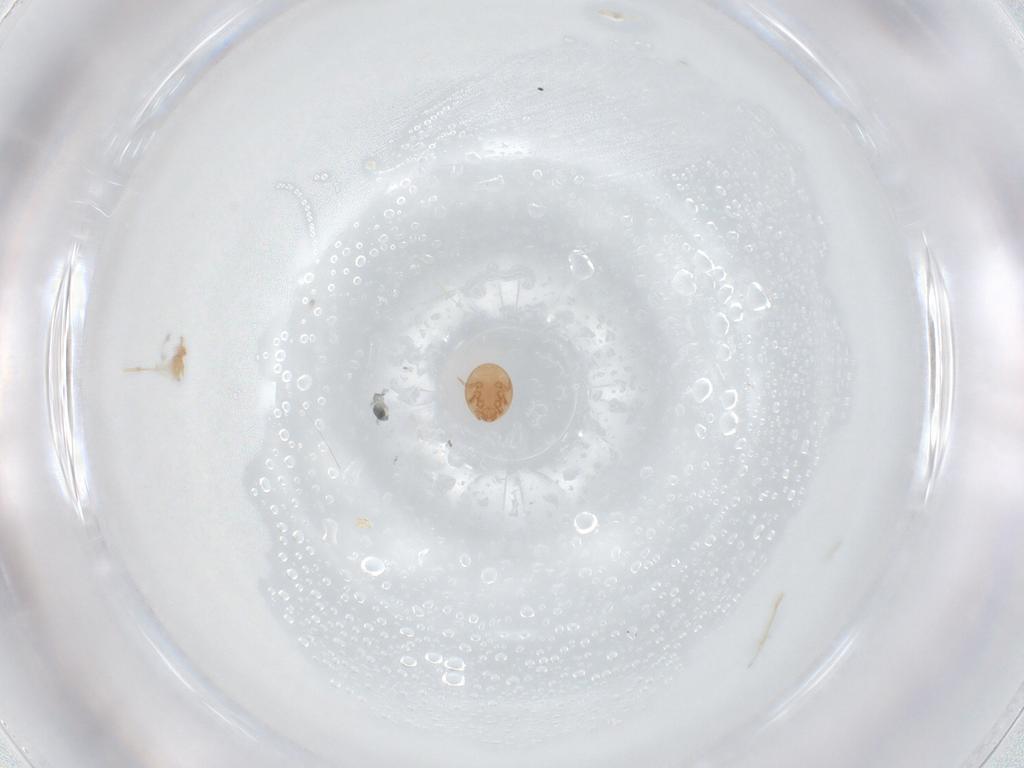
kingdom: Animalia
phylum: Arthropoda
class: Arachnida
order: Mesostigmata
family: Trematuridae
